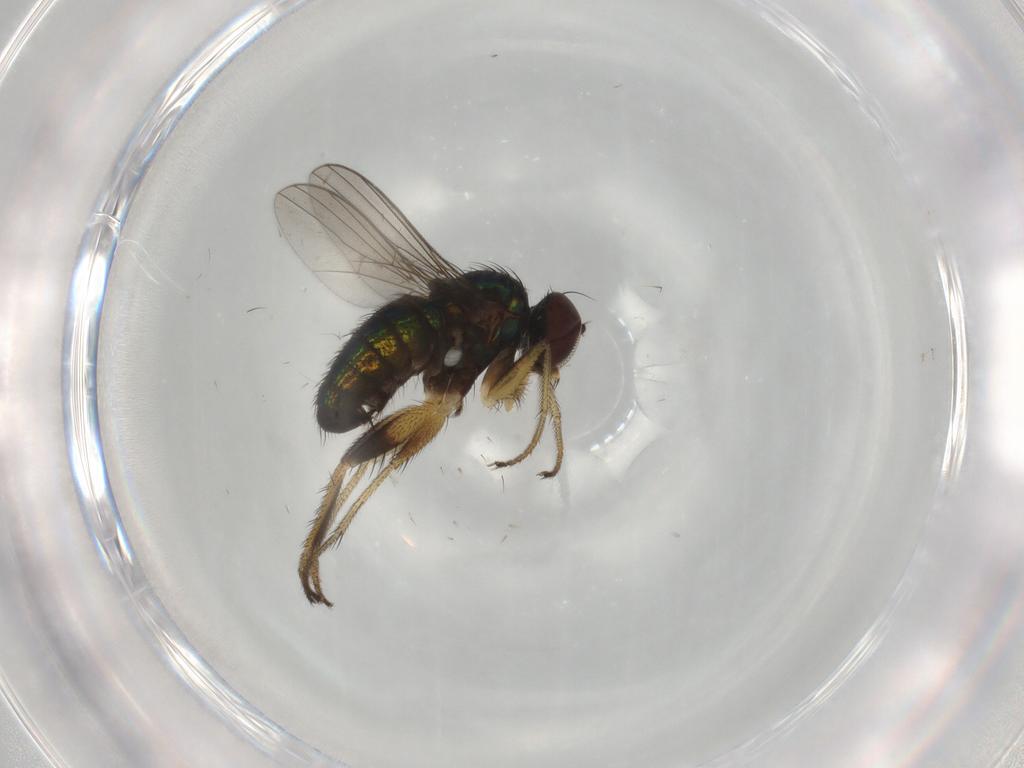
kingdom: Animalia
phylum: Arthropoda
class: Insecta
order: Diptera
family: Dolichopodidae
